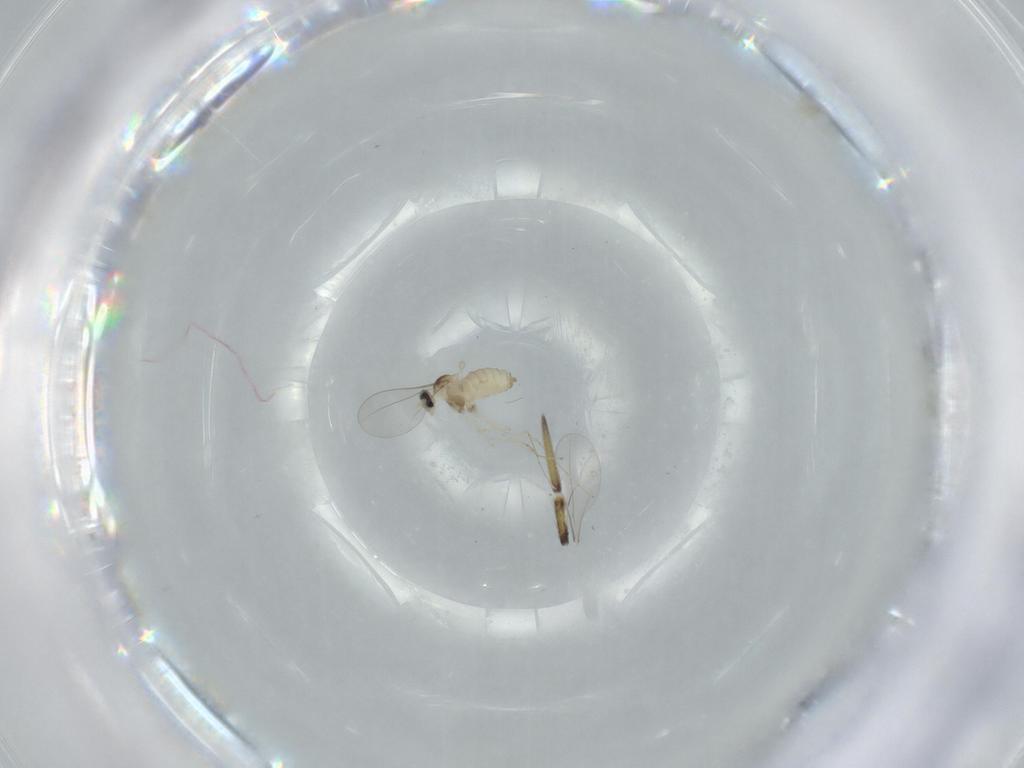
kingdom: Animalia
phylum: Arthropoda
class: Insecta
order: Diptera
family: Cecidomyiidae
